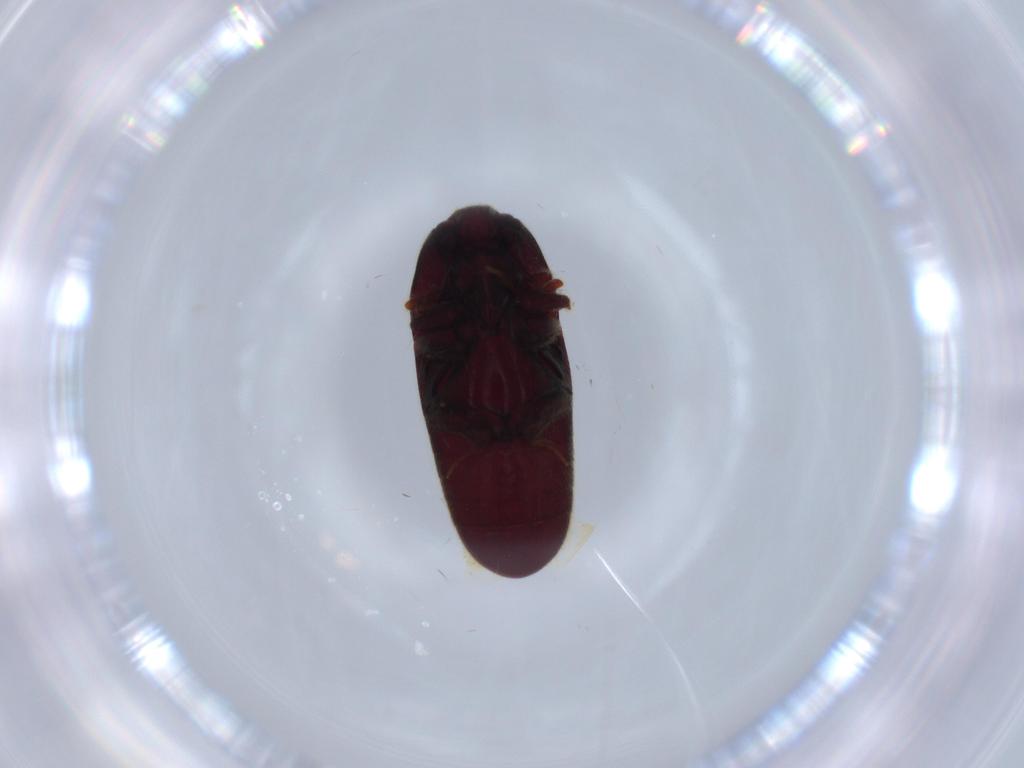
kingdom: Animalia
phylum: Arthropoda
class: Insecta
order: Coleoptera
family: Throscidae
